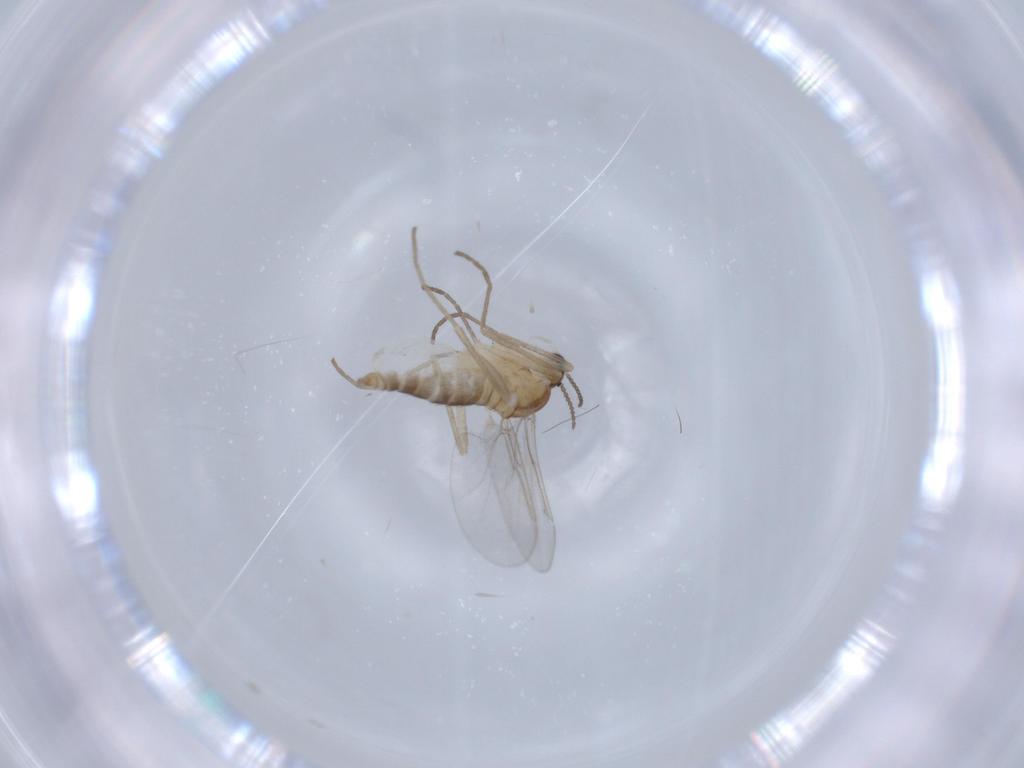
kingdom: Animalia
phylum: Arthropoda
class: Insecta
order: Diptera
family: Cecidomyiidae
